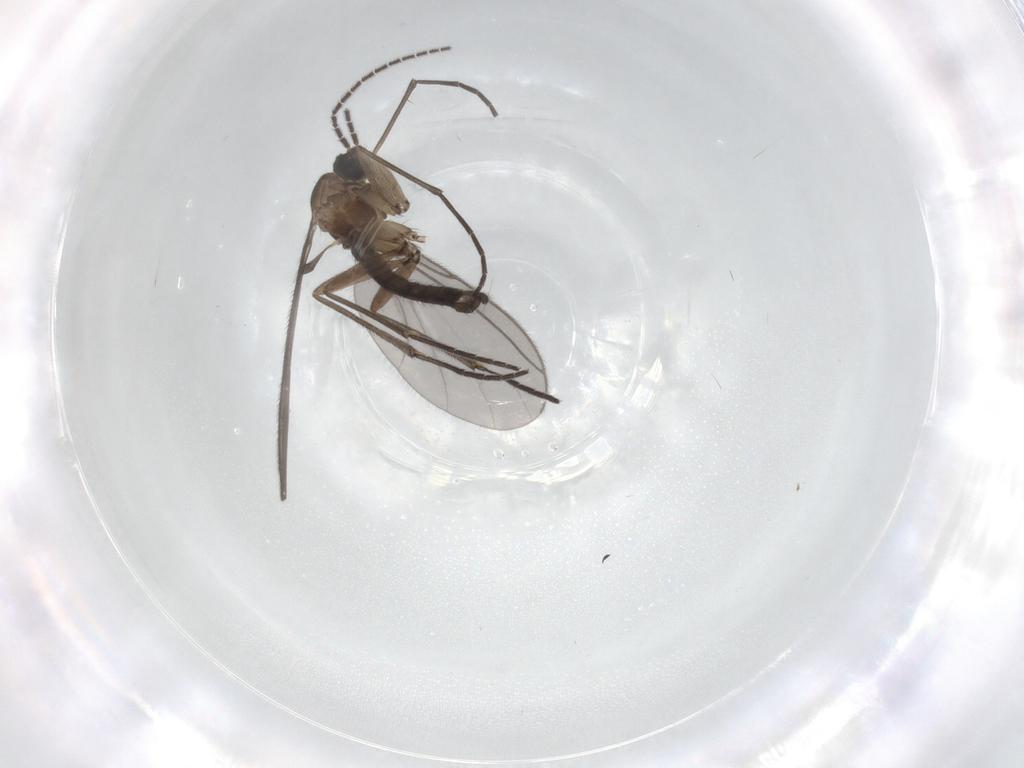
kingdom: Animalia
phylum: Arthropoda
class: Insecta
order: Diptera
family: Sciaridae
